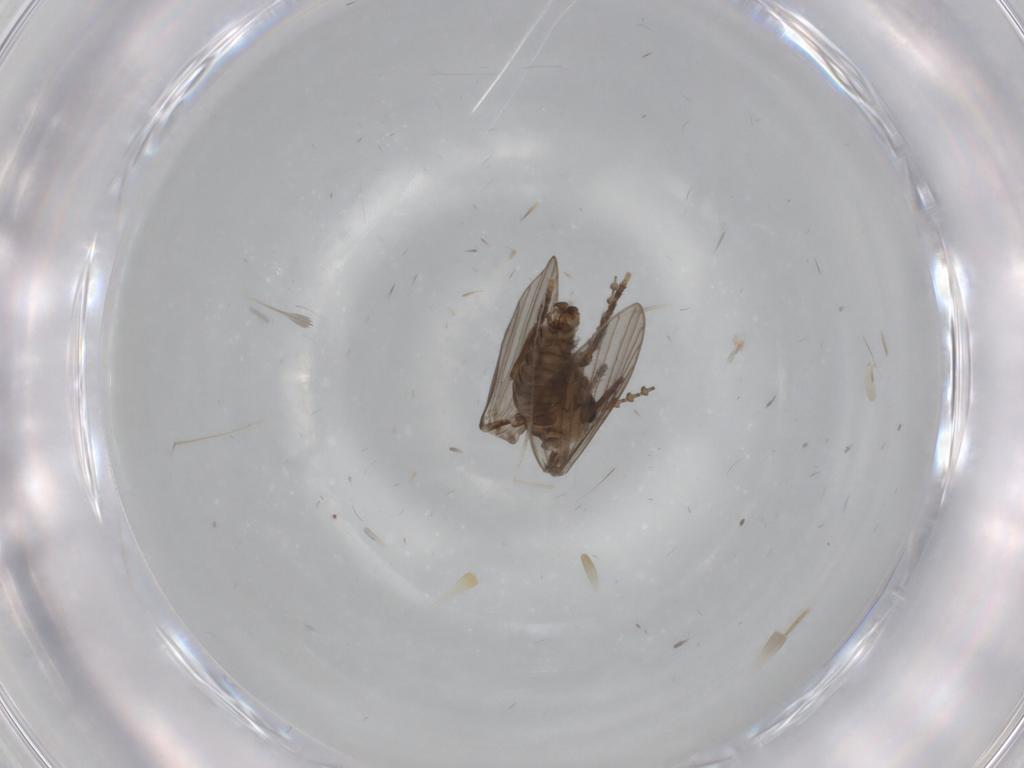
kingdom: Animalia
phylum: Arthropoda
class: Insecta
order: Diptera
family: Psychodidae
